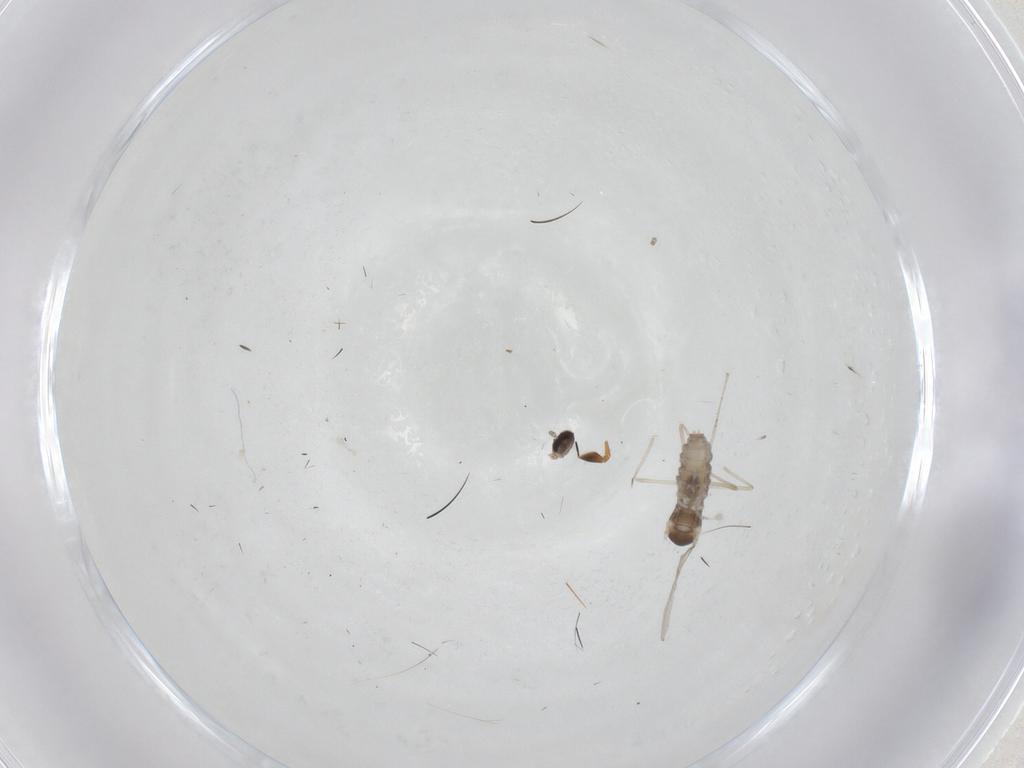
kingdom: Animalia
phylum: Arthropoda
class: Insecta
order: Diptera
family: Cecidomyiidae
